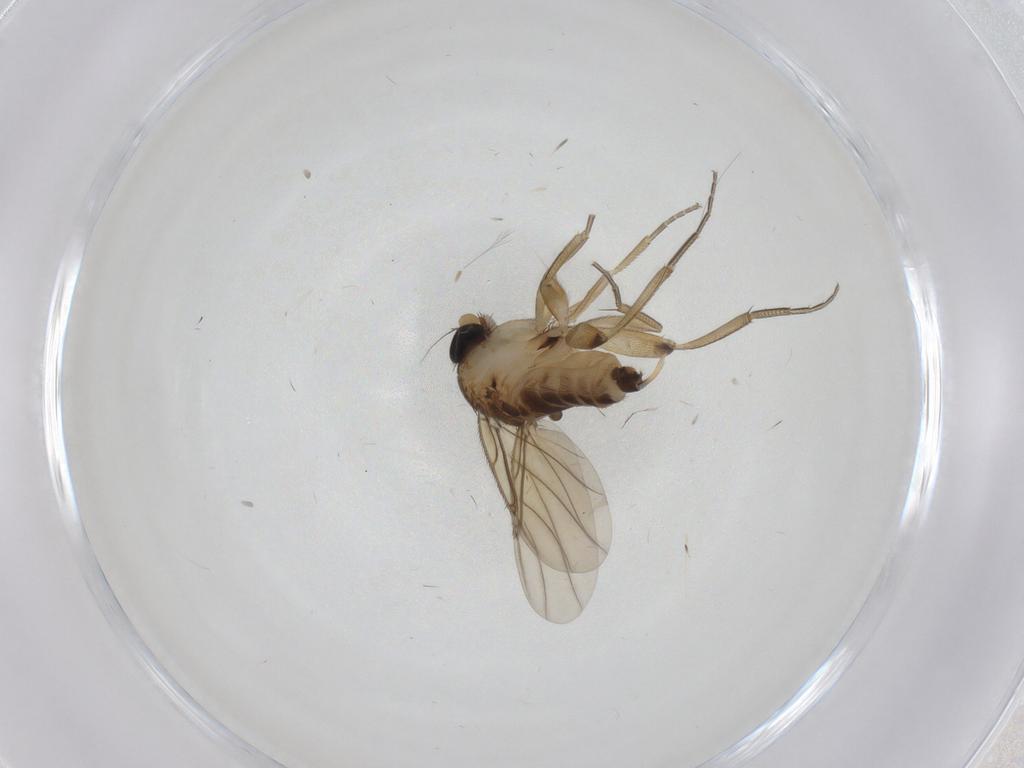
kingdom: Animalia
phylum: Arthropoda
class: Insecta
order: Diptera
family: Phoridae
